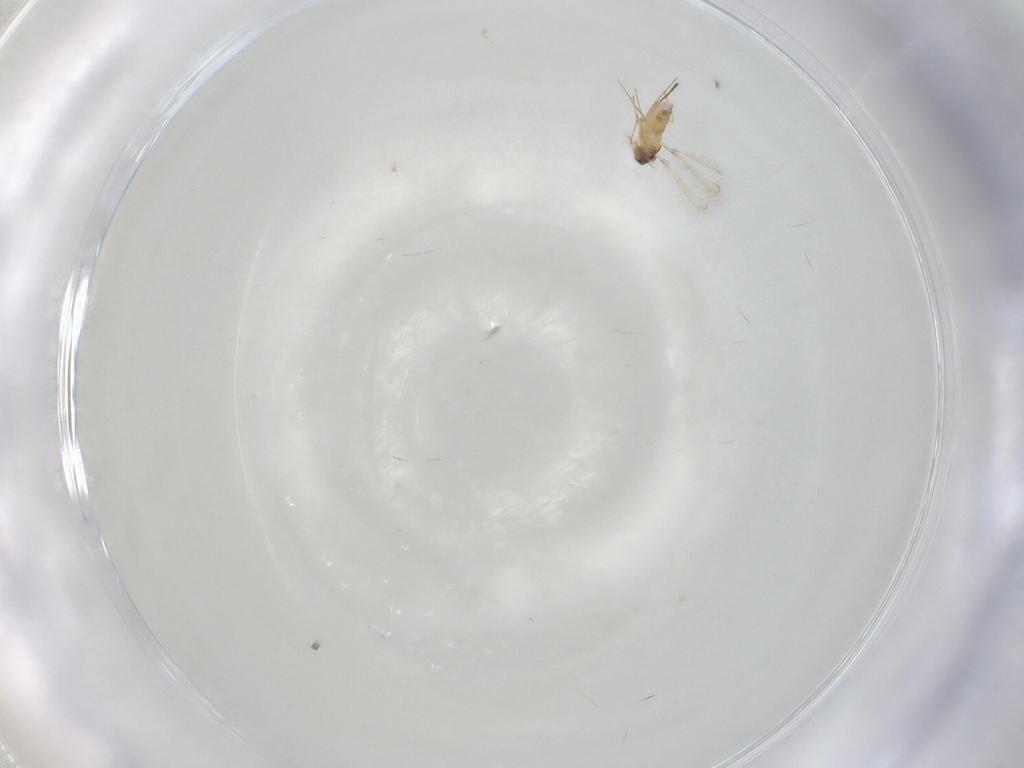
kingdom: Animalia
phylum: Arthropoda
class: Insecta
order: Hymenoptera
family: Mymaridae
